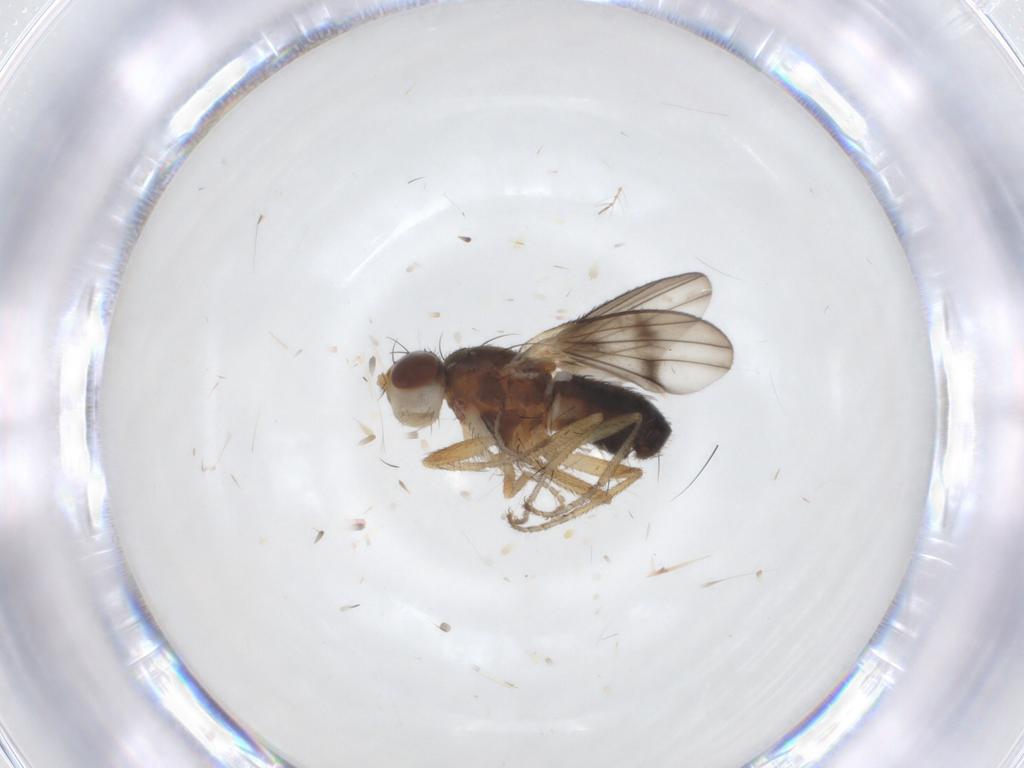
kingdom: Animalia
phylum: Arthropoda
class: Insecta
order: Diptera
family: Heleomyzidae
